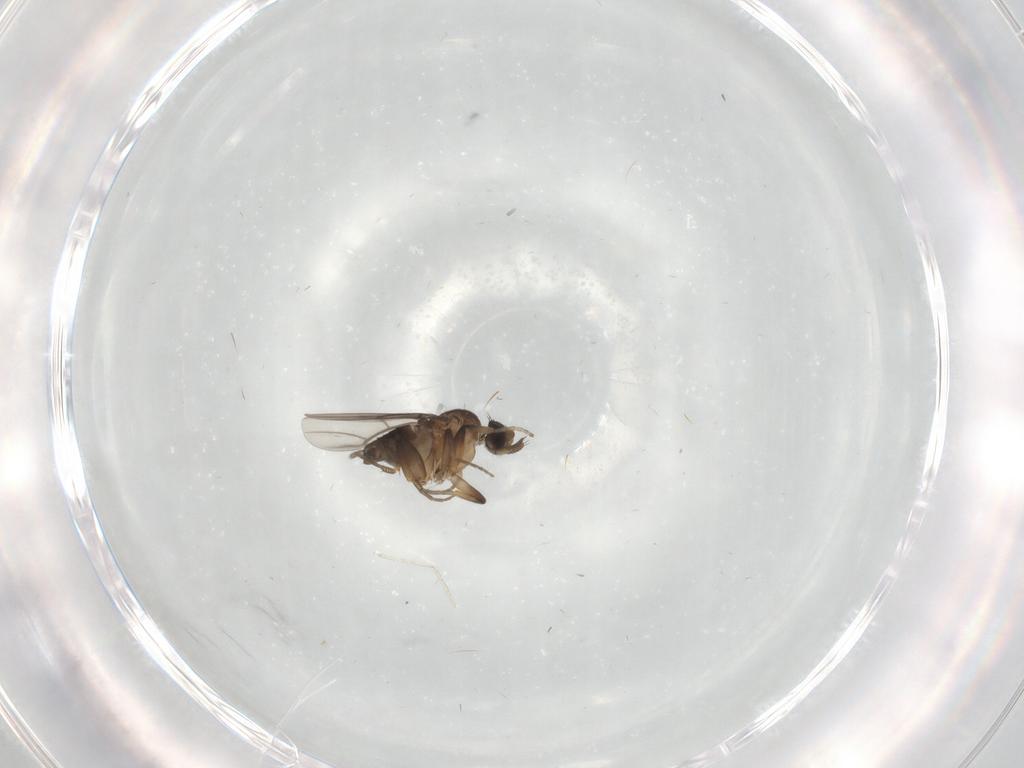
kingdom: Animalia
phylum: Arthropoda
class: Insecta
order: Diptera
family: Phoridae
